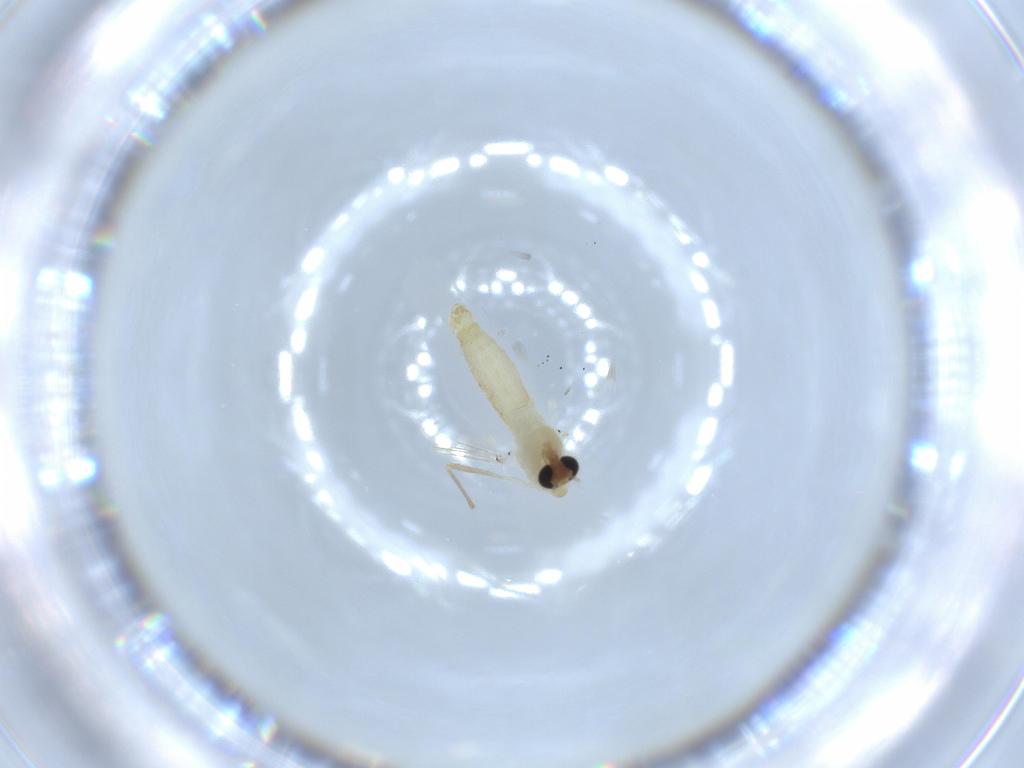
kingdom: Animalia
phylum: Arthropoda
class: Insecta
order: Diptera
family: Chironomidae
